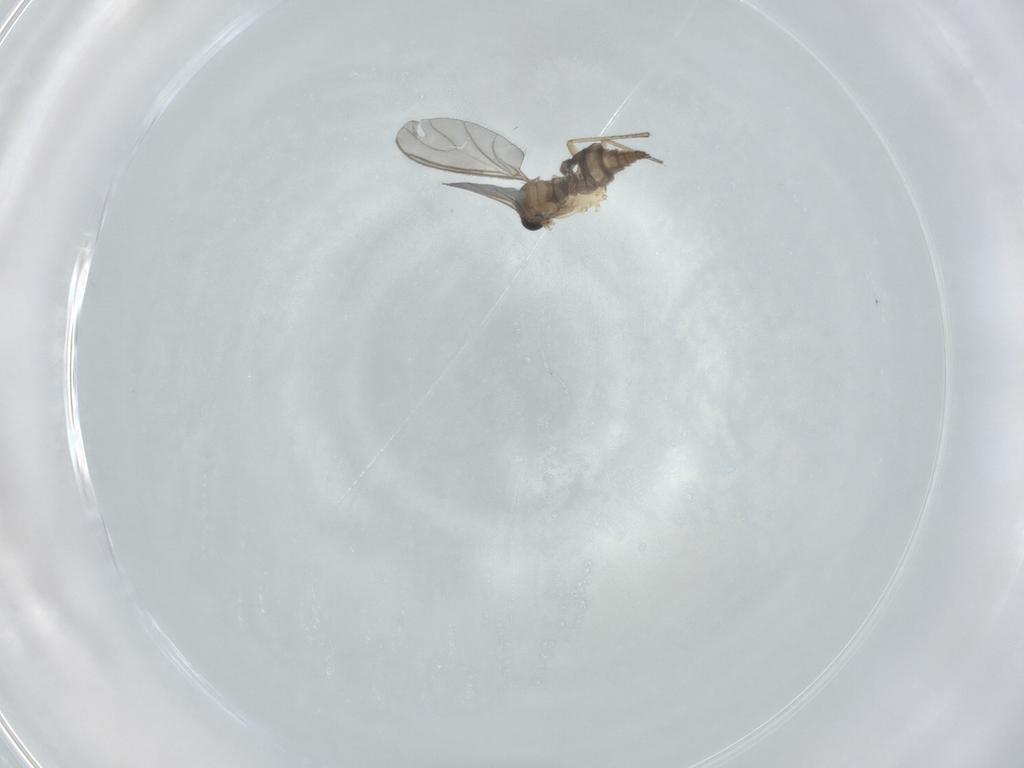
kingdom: Animalia
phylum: Arthropoda
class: Insecta
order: Diptera
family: Sciaridae
